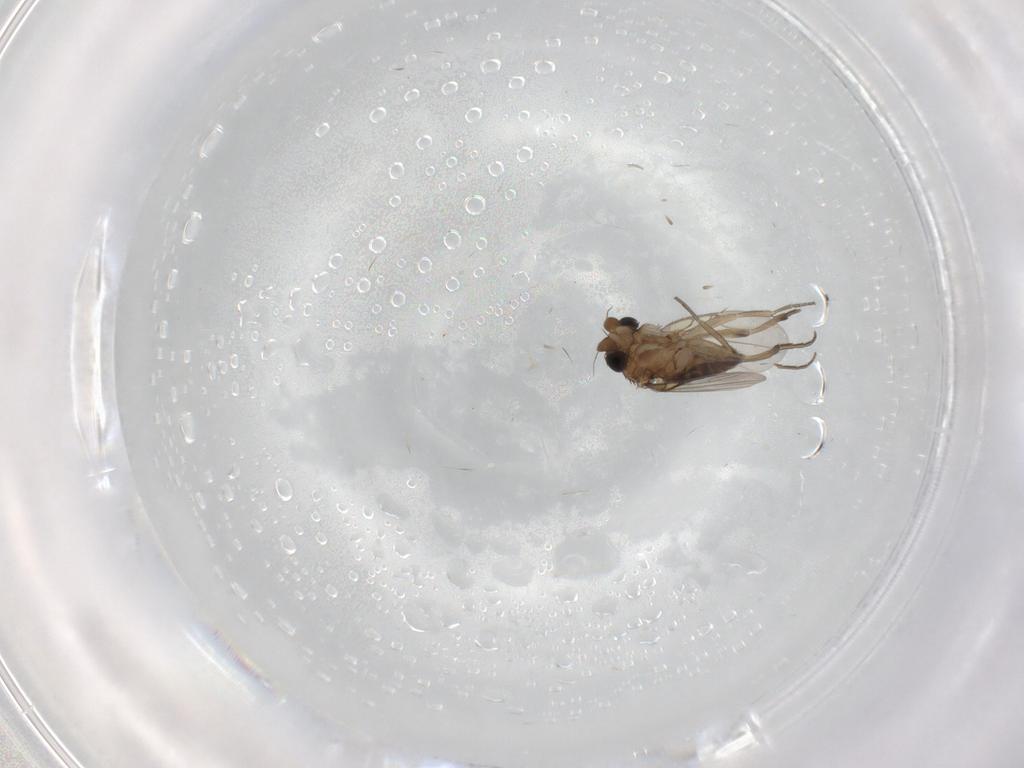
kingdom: Animalia
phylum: Arthropoda
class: Insecta
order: Diptera
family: Phoridae
